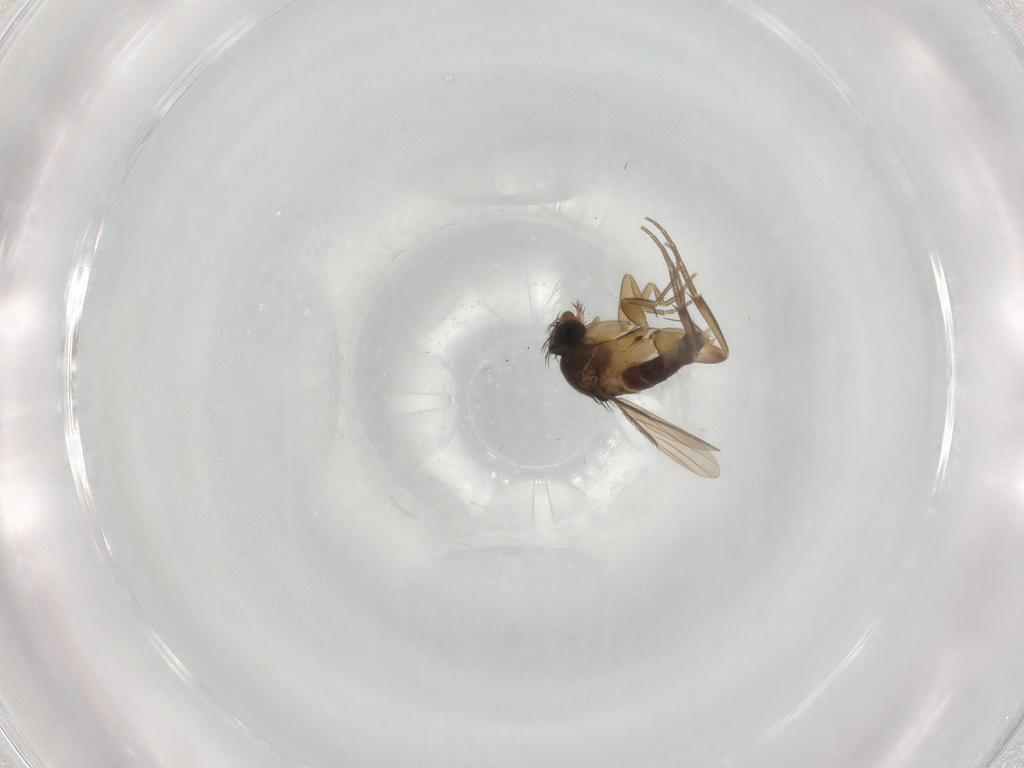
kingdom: Animalia
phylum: Arthropoda
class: Insecta
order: Diptera
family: Phoridae
